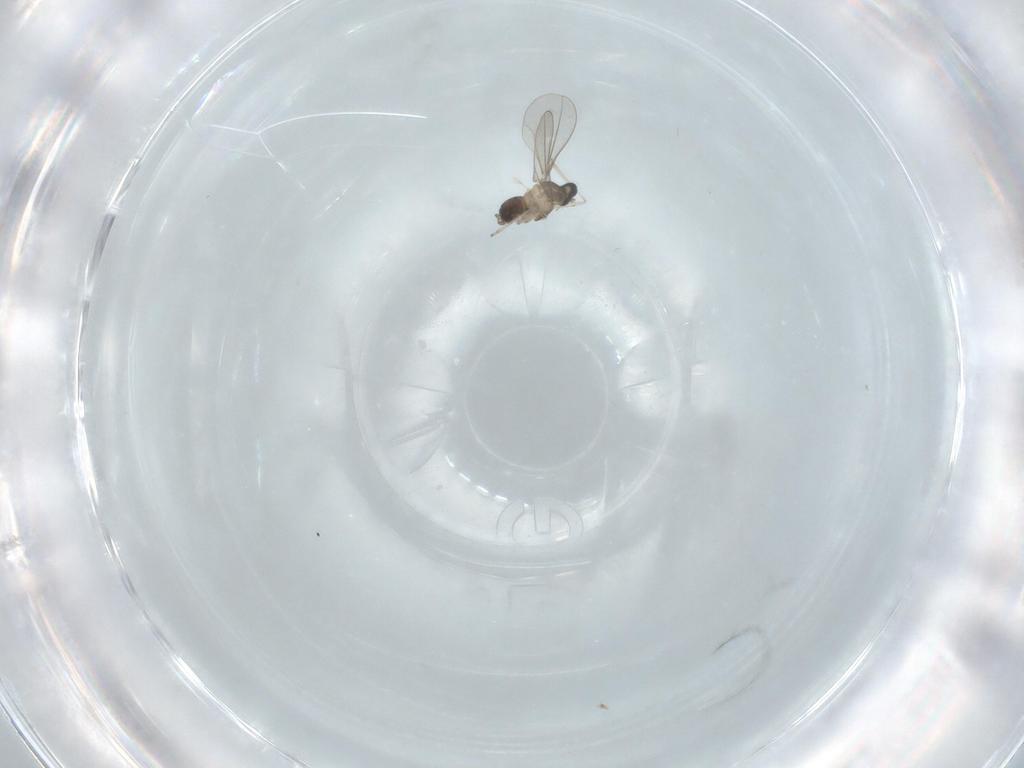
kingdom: Animalia
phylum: Arthropoda
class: Insecta
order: Diptera
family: Cecidomyiidae
